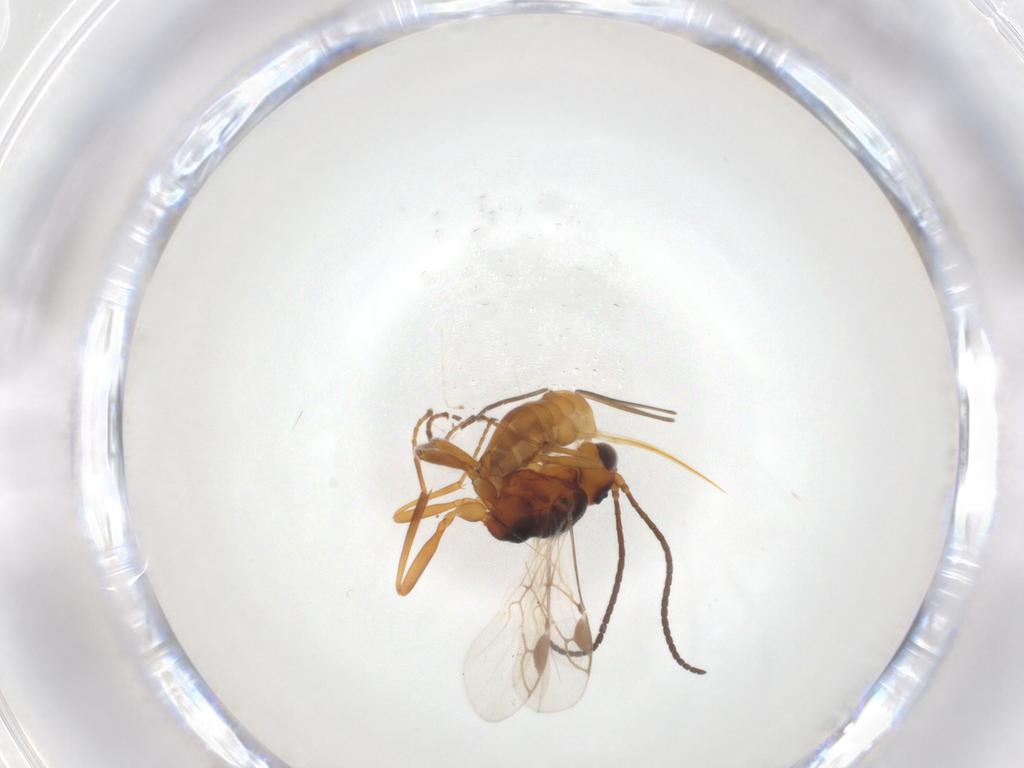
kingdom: Animalia
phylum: Arthropoda
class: Insecta
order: Hymenoptera
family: Braconidae
